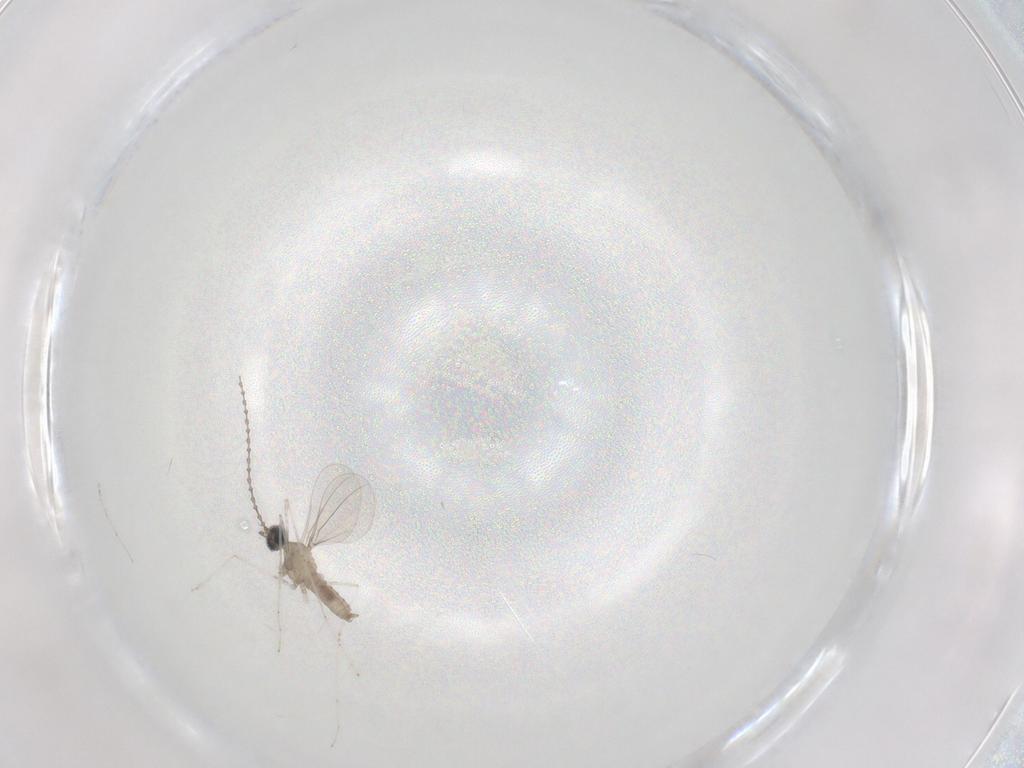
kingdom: Animalia
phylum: Arthropoda
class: Insecta
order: Diptera
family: Cecidomyiidae
